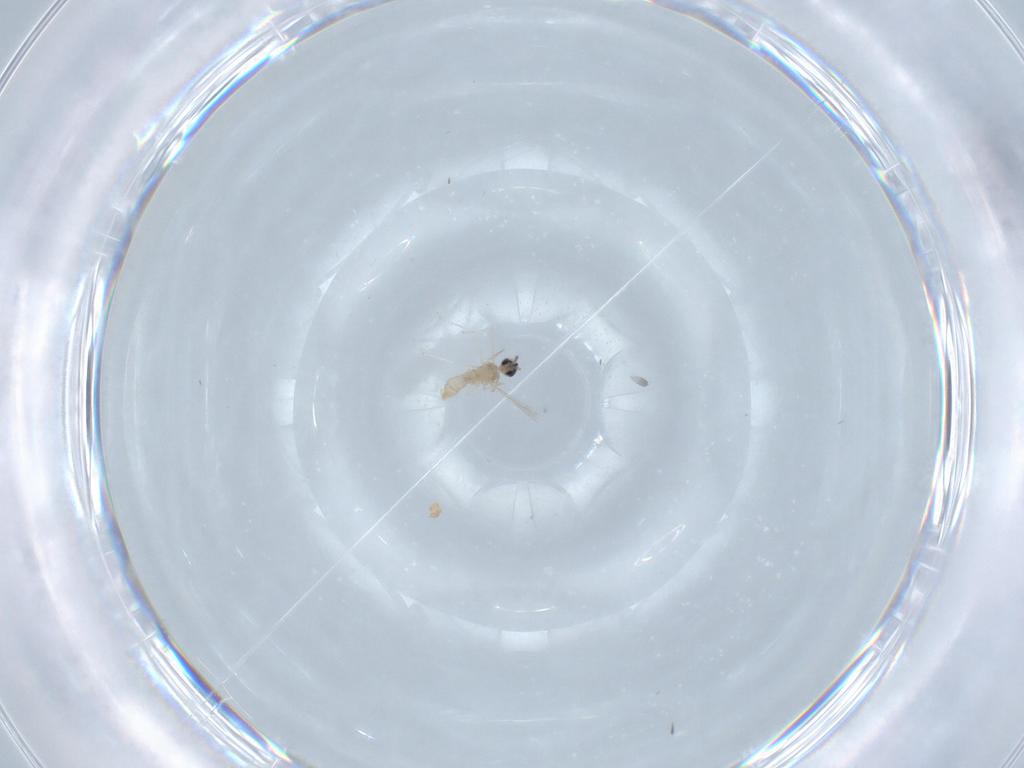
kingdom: Animalia
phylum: Arthropoda
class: Insecta
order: Diptera
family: Cecidomyiidae
